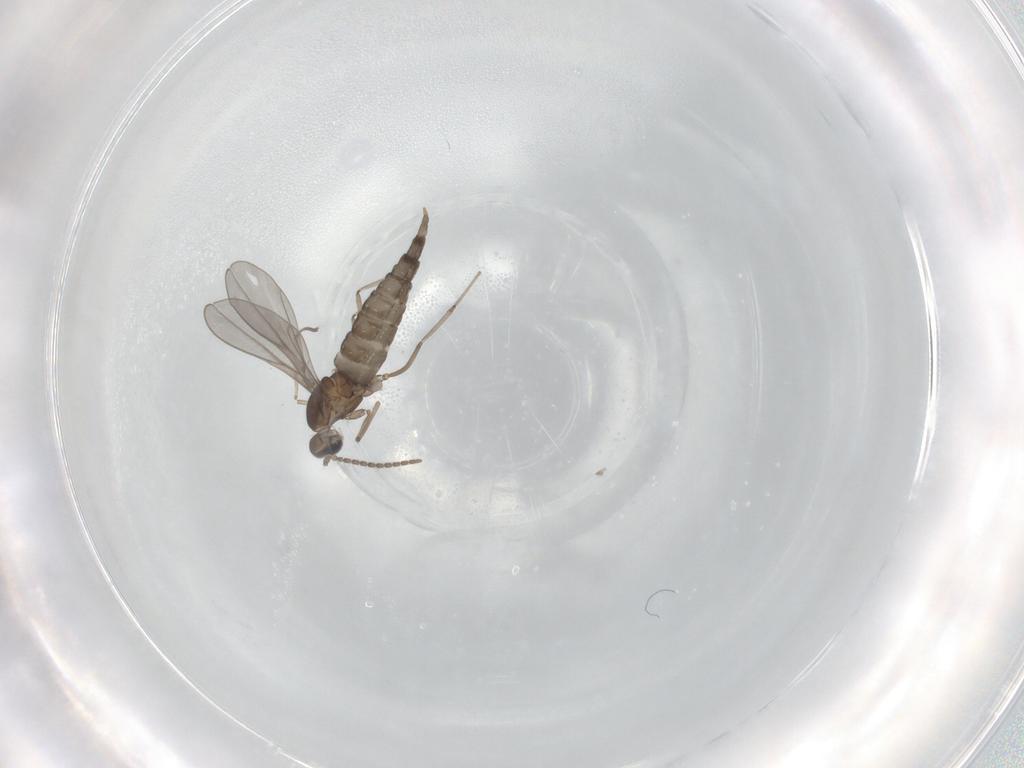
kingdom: Animalia
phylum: Arthropoda
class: Insecta
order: Diptera
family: Cecidomyiidae
